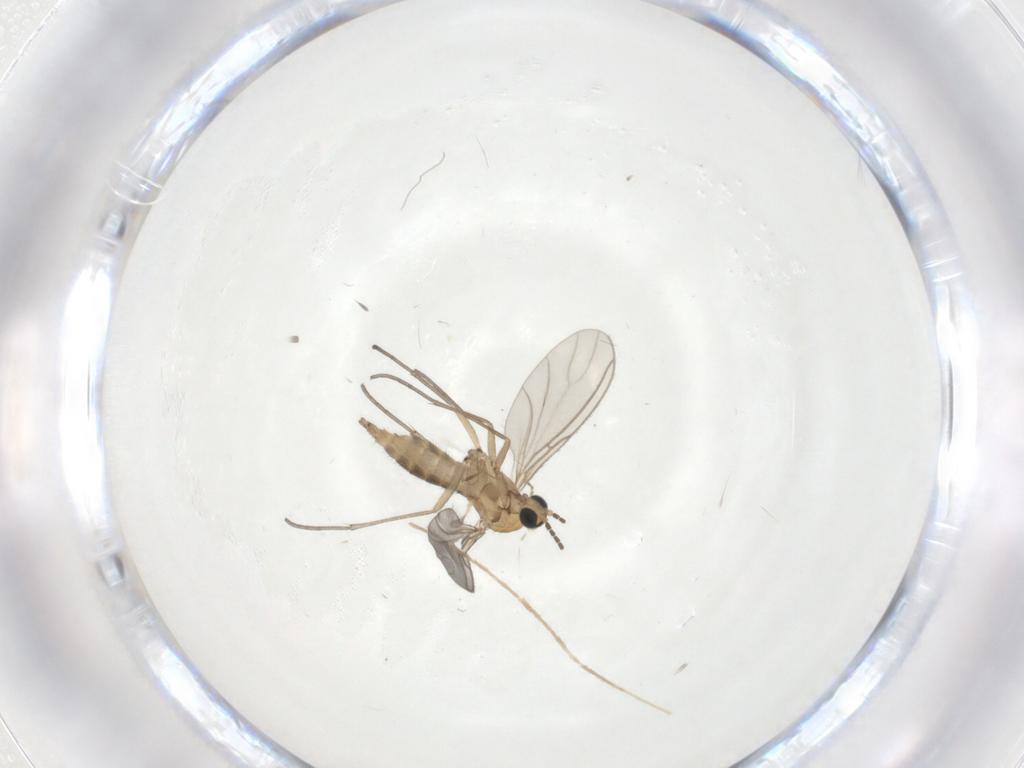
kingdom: Animalia
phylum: Arthropoda
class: Insecta
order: Diptera
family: Sciaridae
